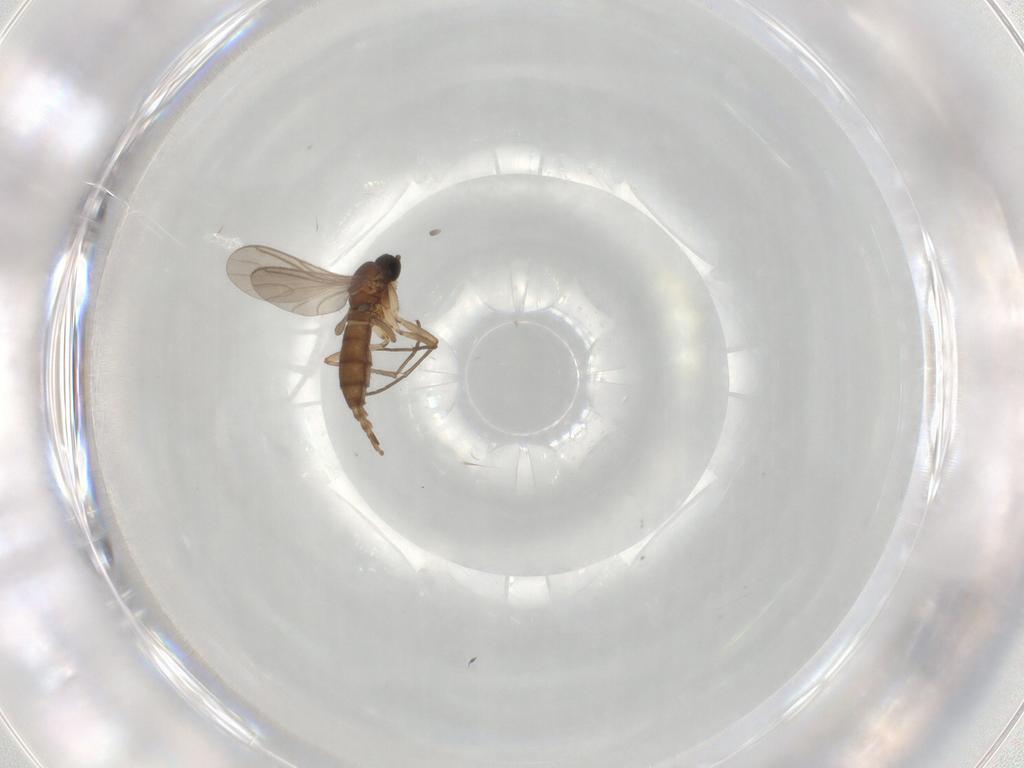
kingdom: Animalia
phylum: Arthropoda
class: Insecta
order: Diptera
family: Sciaridae
